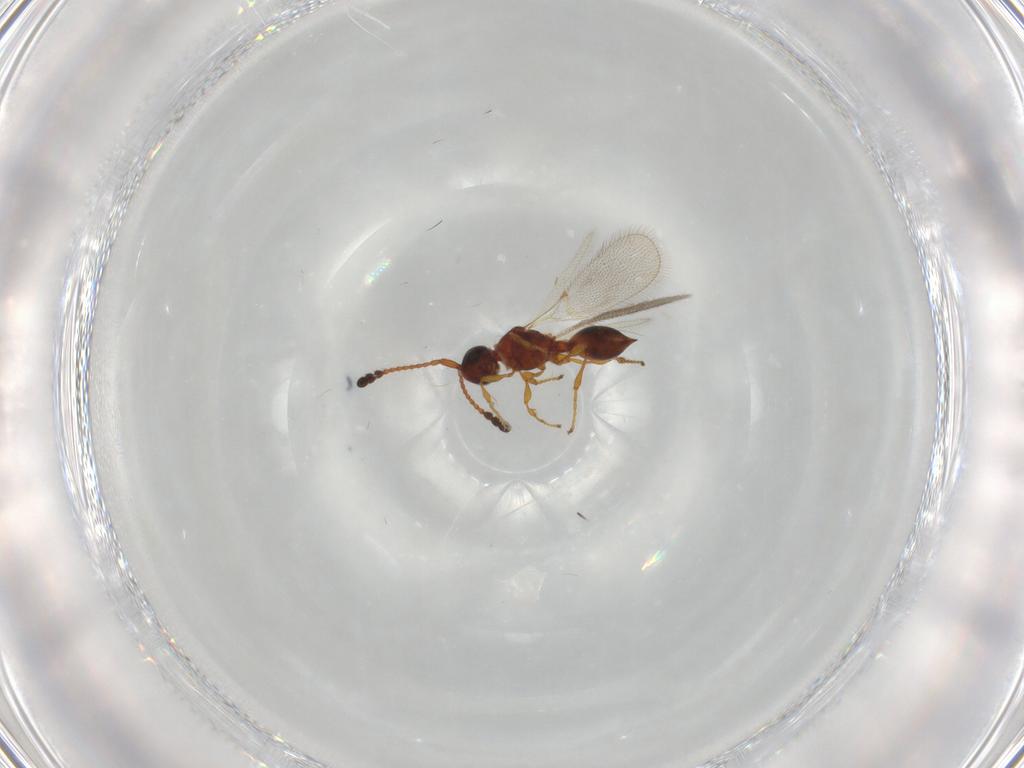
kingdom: Animalia
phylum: Arthropoda
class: Insecta
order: Hymenoptera
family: Diapriidae
